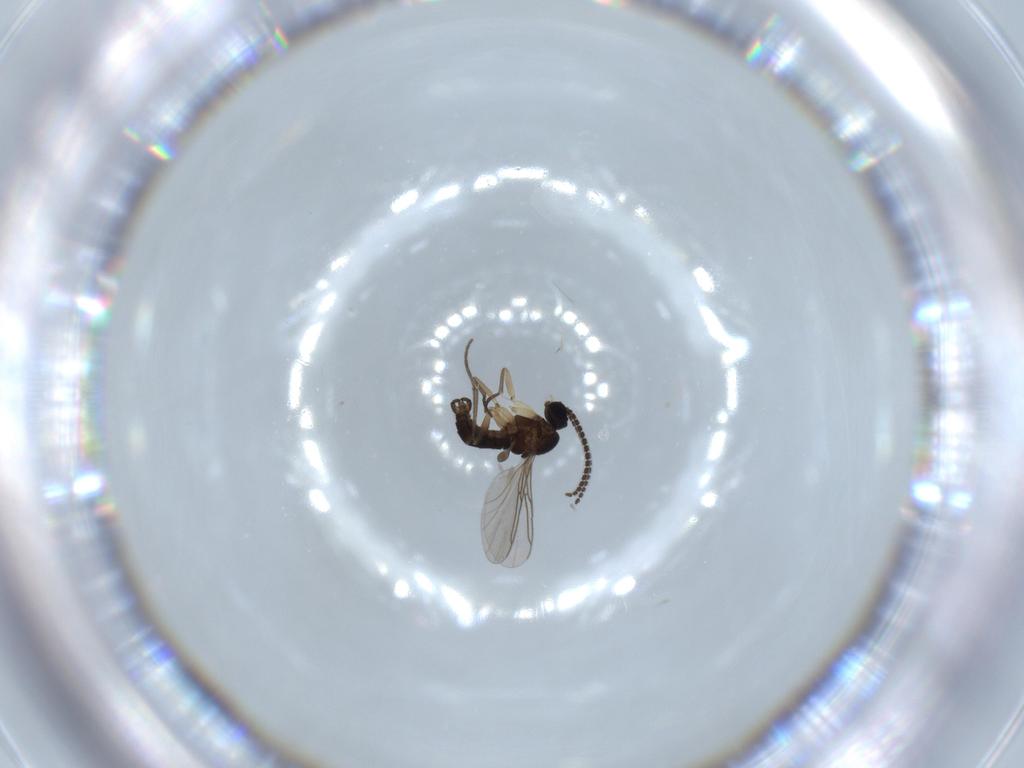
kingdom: Animalia
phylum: Arthropoda
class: Insecta
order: Diptera
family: Sciaridae
